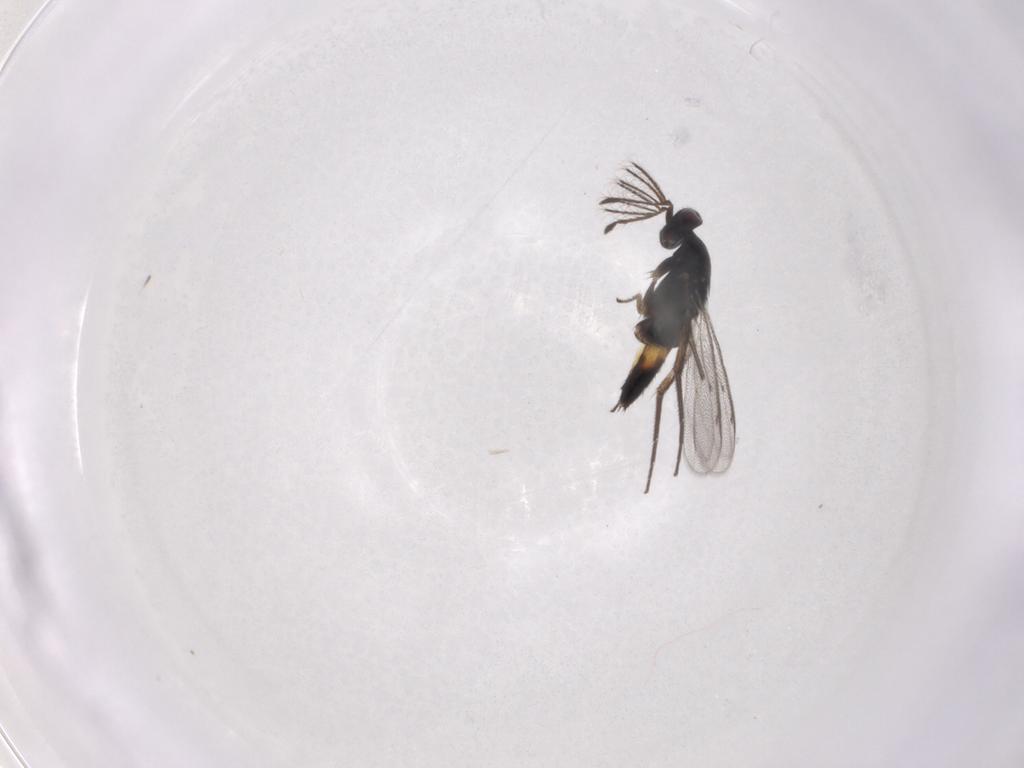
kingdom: Animalia
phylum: Arthropoda
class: Insecta
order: Hymenoptera
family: Eulophidae
